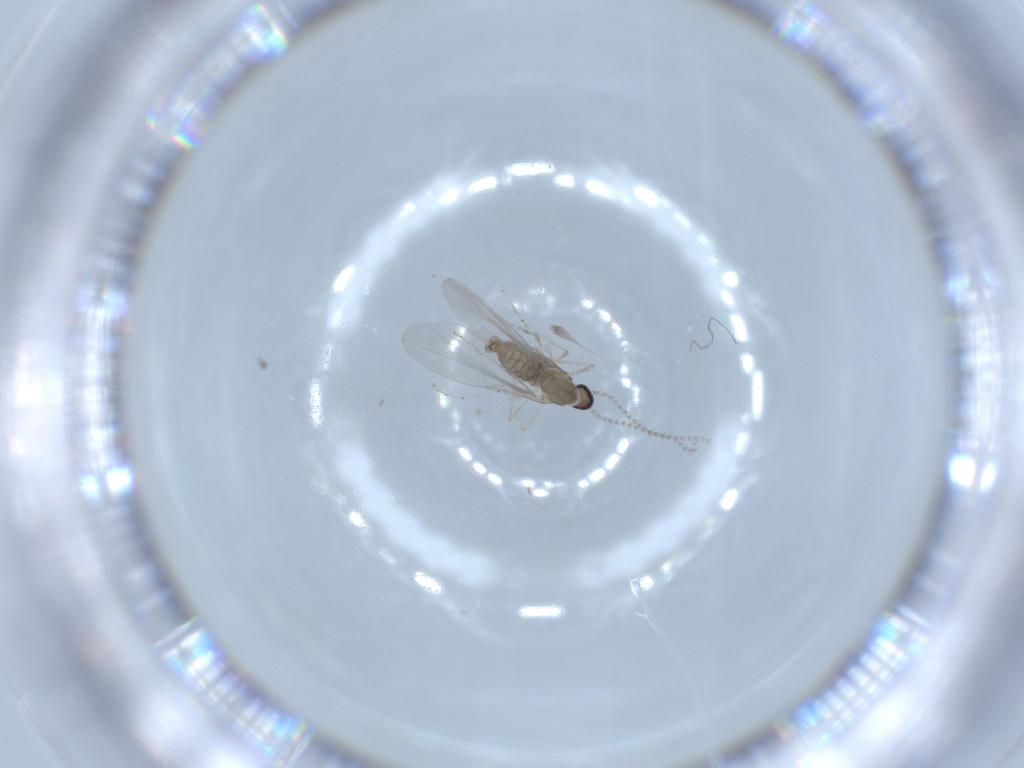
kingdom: Animalia
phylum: Arthropoda
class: Insecta
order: Diptera
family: Cecidomyiidae
